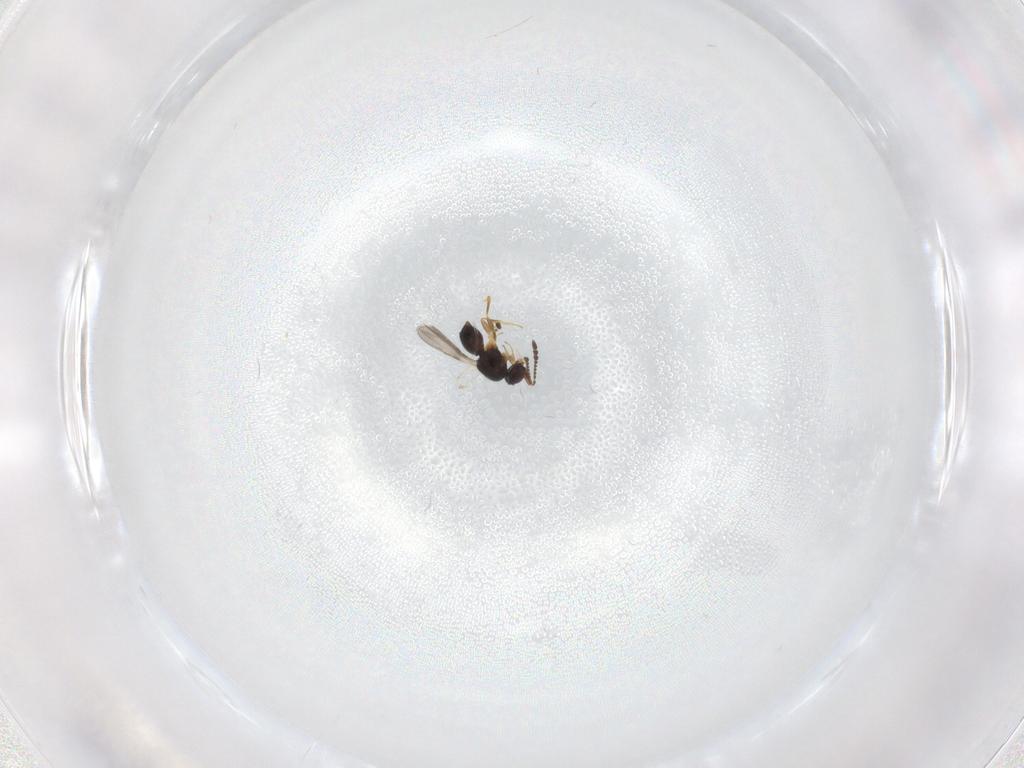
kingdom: Animalia
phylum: Arthropoda
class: Insecta
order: Hymenoptera
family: Ceraphronidae
